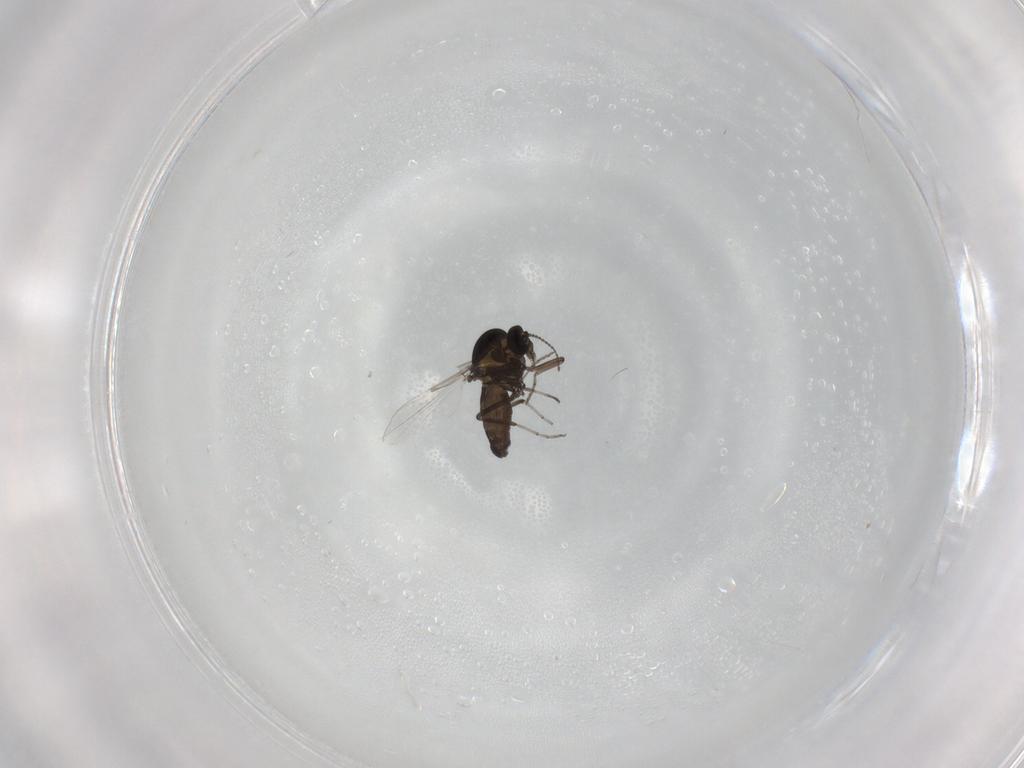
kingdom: Animalia
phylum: Arthropoda
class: Insecta
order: Diptera
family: Ceratopogonidae
